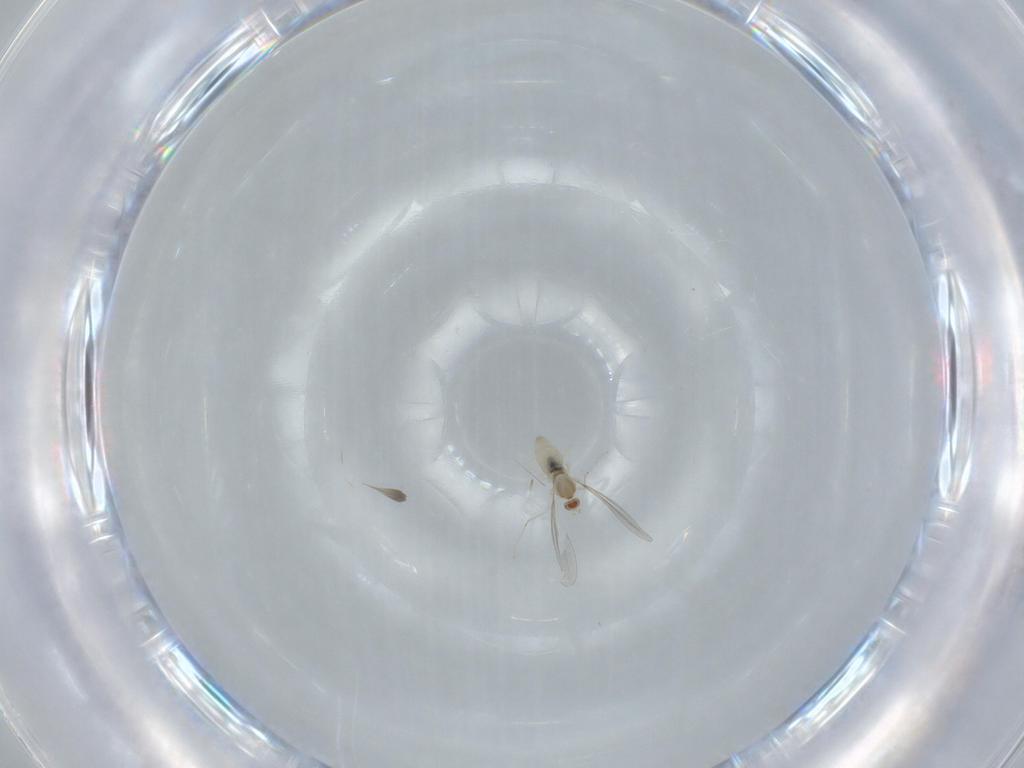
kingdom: Animalia
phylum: Arthropoda
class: Insecta
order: Diptera
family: Cecidomyiidae
